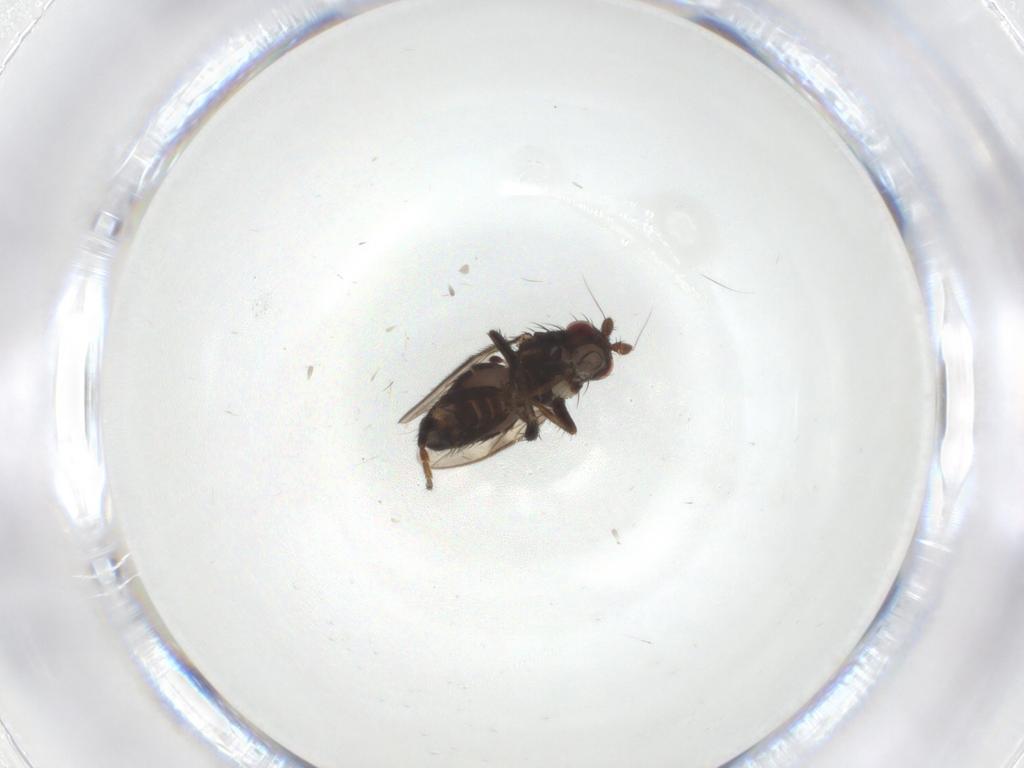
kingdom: Animalia
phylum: Arthropoda
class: Insecta
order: Diptera
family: Sphaeroceridae
